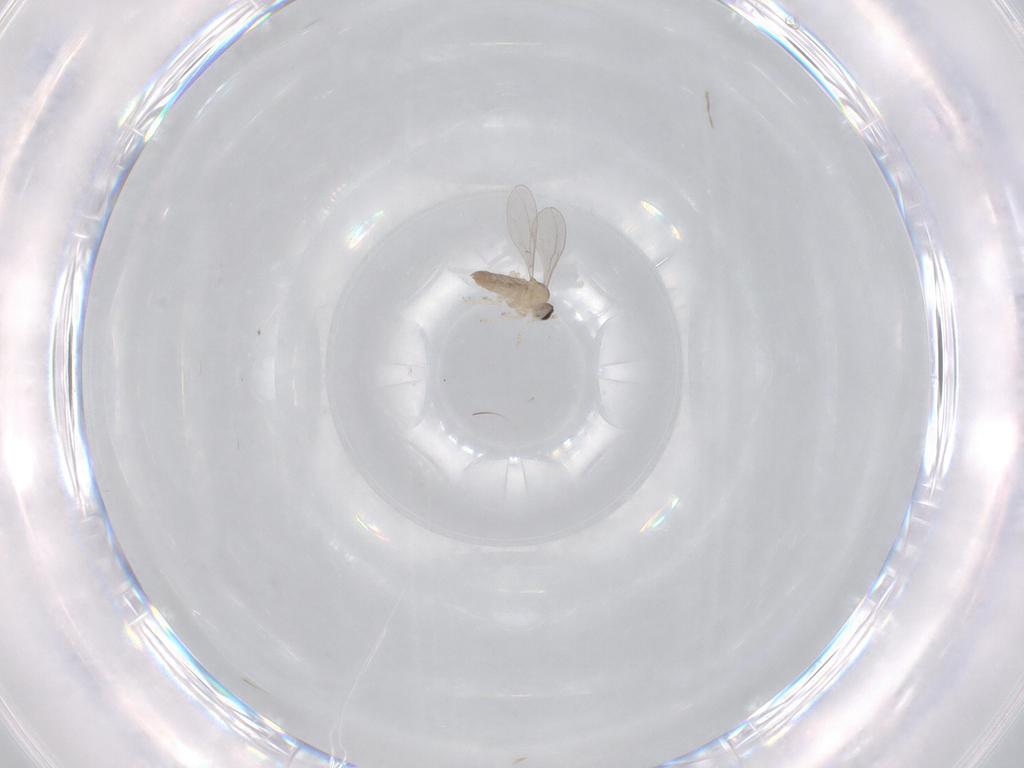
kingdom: Animalia
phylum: Arthropoda
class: Insecta
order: Diptera
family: Cecidomyiidae
